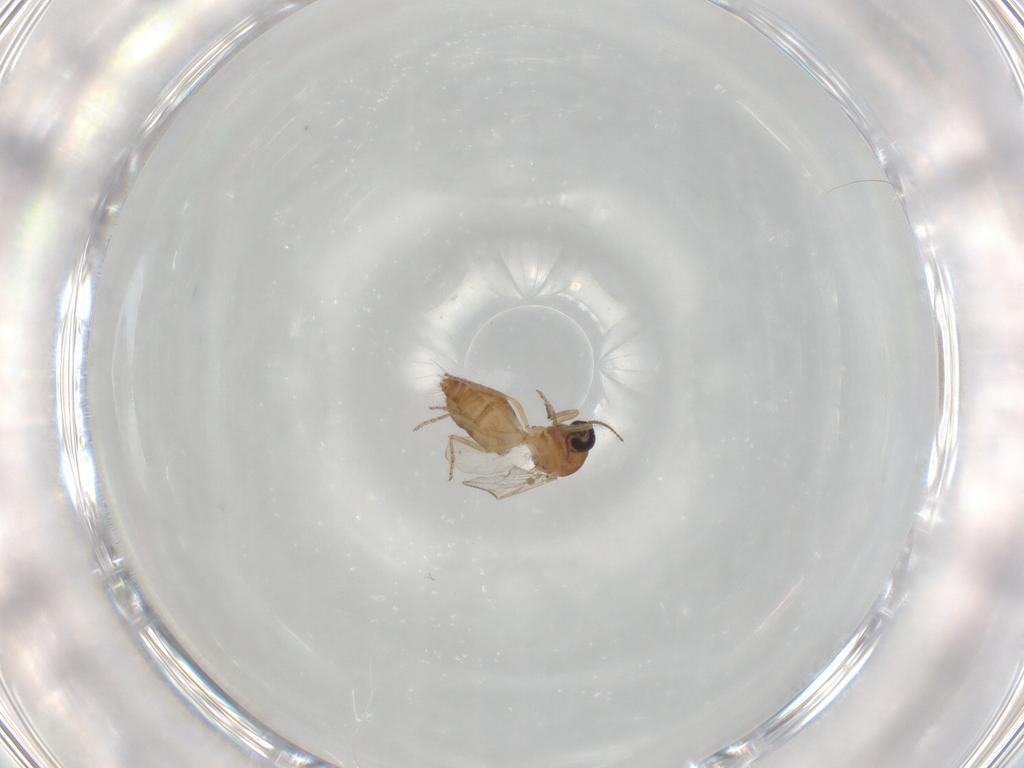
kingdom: Animalia
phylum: Arthropoda
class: Insecta
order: Diptera
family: Ceratopogonidae
